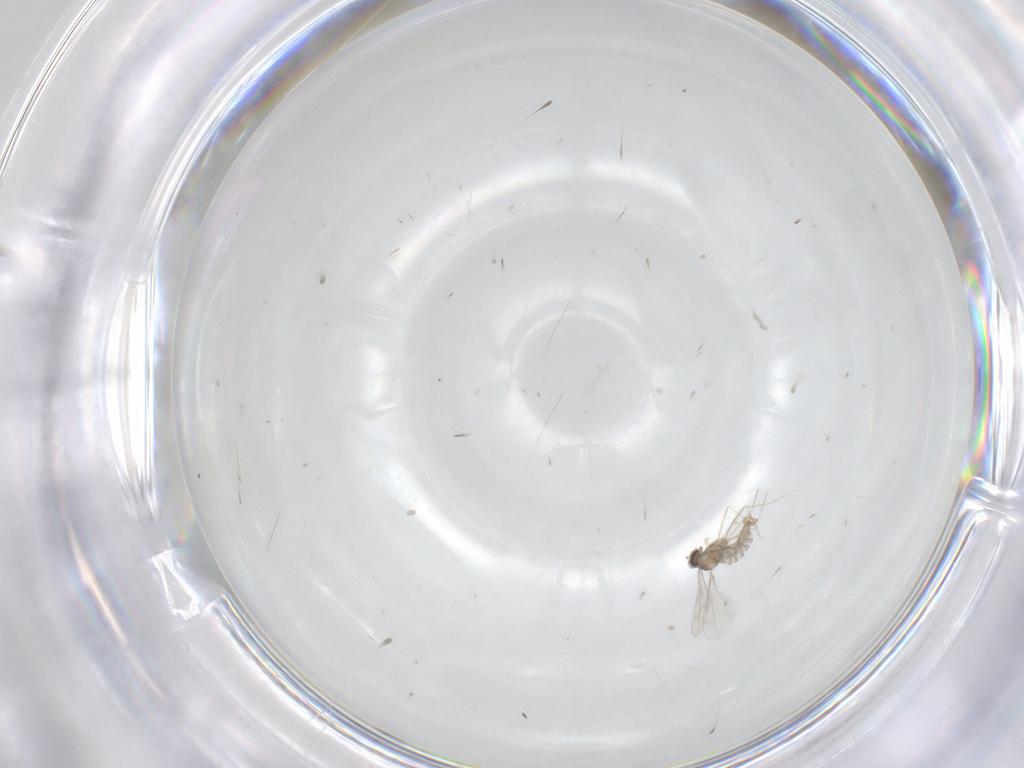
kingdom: Animalia
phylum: Arthropoda
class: Insecta
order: Diptera
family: Cecidomyiidae
